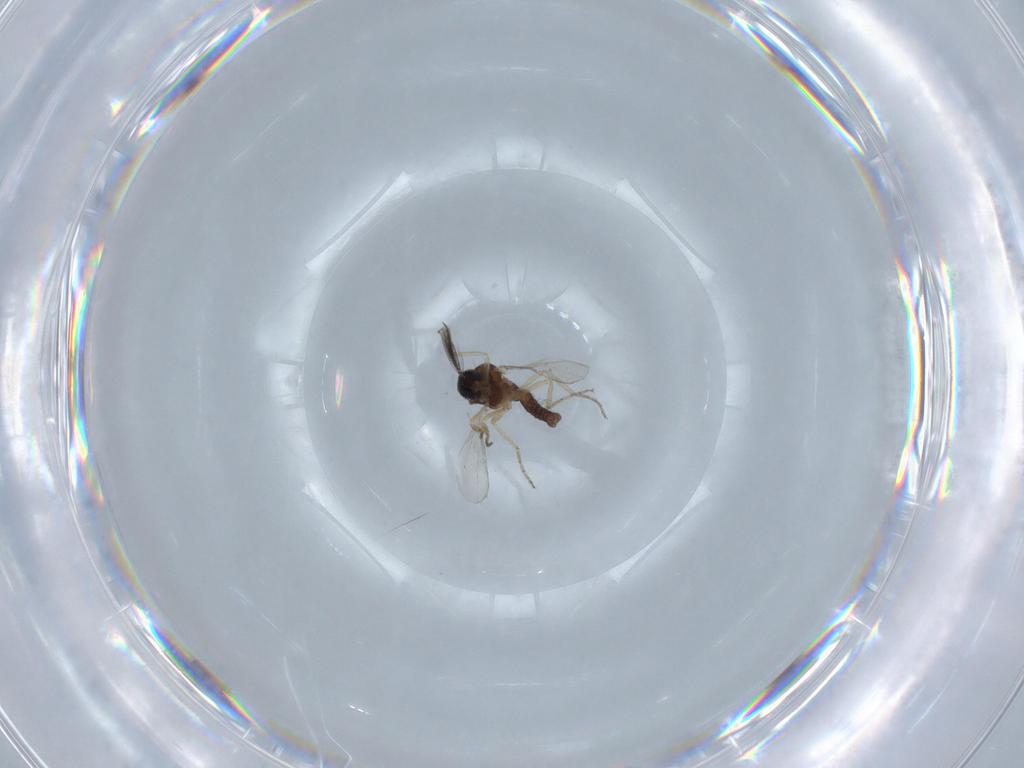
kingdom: Animalia
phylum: Arthropoda
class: Insecta
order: Diptera
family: Ceratopogonidae
